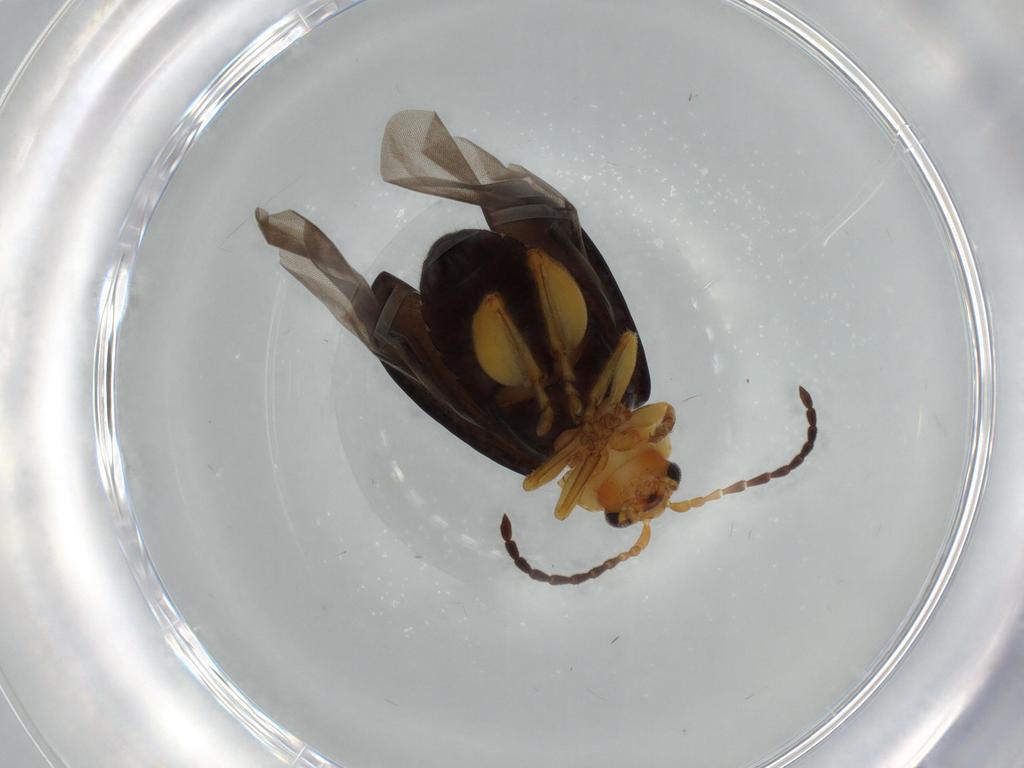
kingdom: Animalia
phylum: Arthropoda
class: Insecta
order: Coleoptera
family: Chrysomelidae
